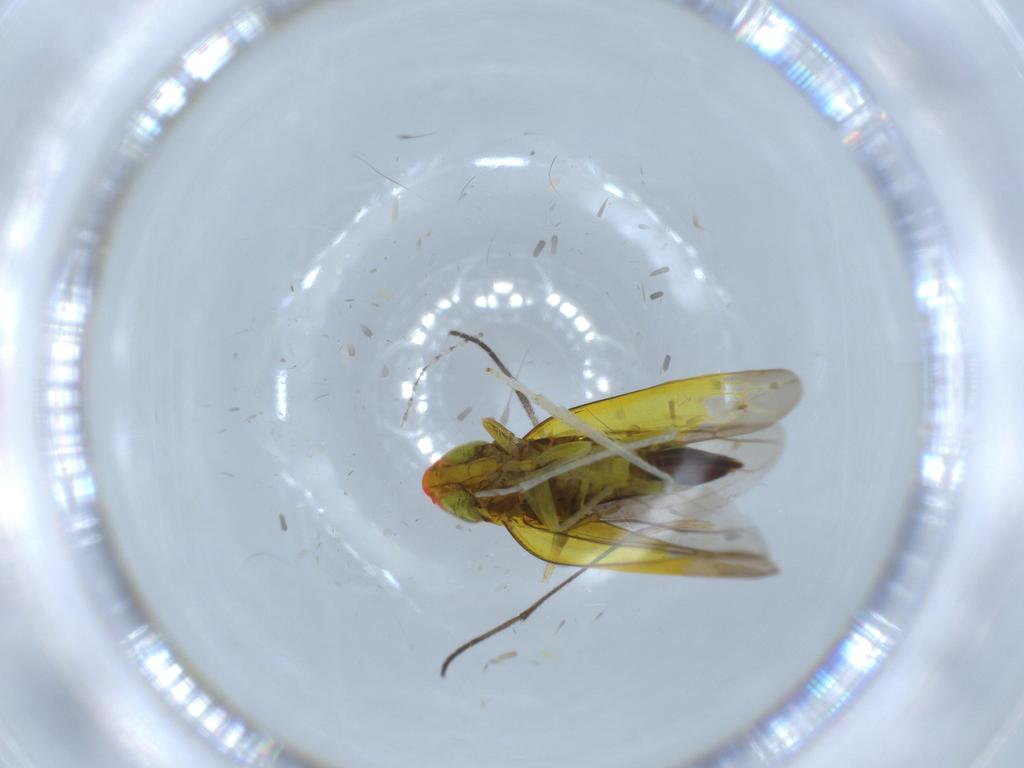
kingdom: Animalia
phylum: Arthropoda
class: Insecta
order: Hemiptera
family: Cicadellidae
